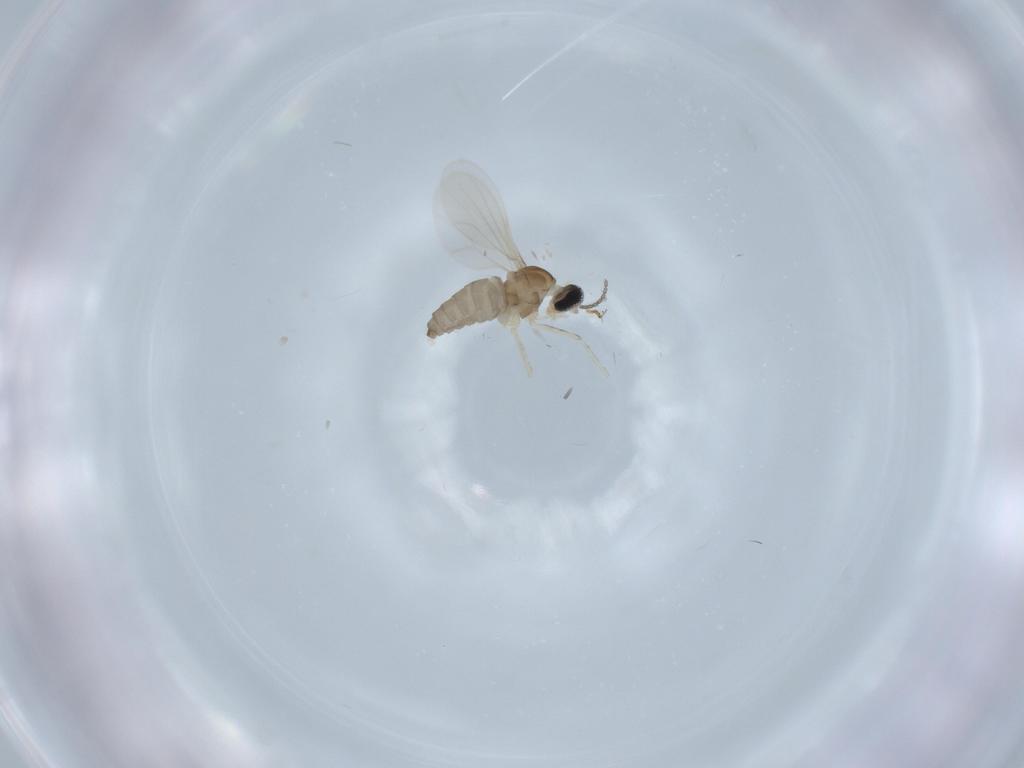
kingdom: Animalia
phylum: Arthropoda
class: Insecta
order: Diptera
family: Cecidomyiidae
